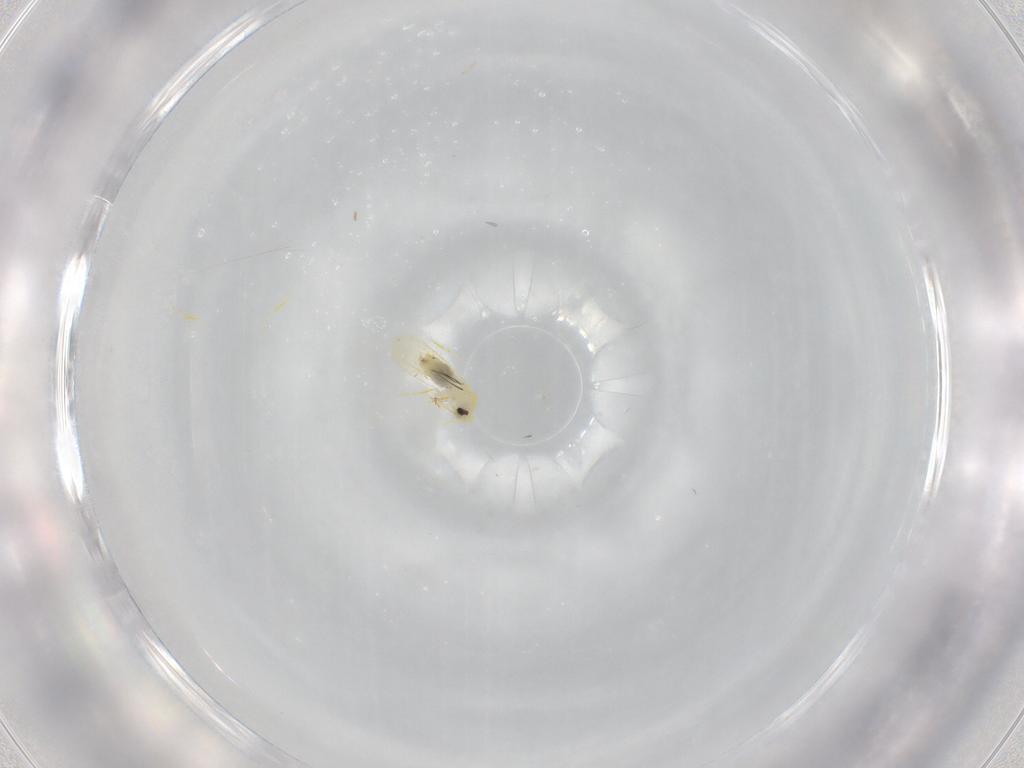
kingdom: Animalia
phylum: Arthropoda
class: Insecta
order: Hemiptera
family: Aleyrodidae
